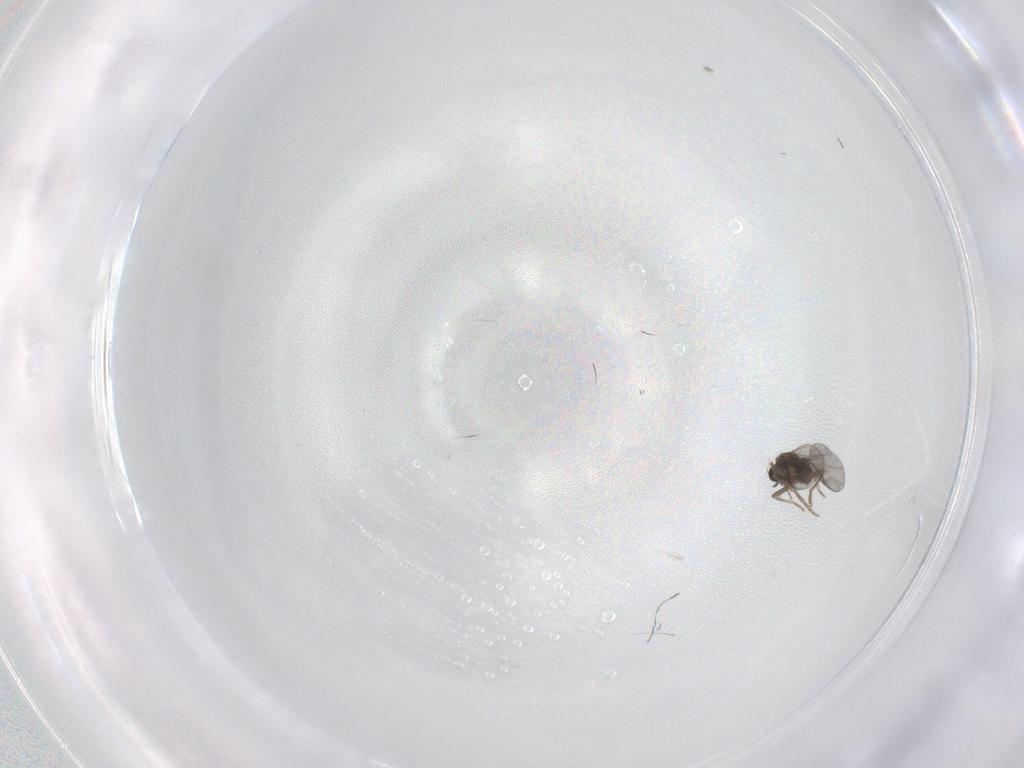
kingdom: Animalia
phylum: Arthropoda
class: Insecta
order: Diptera
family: Cecidomyiidae
